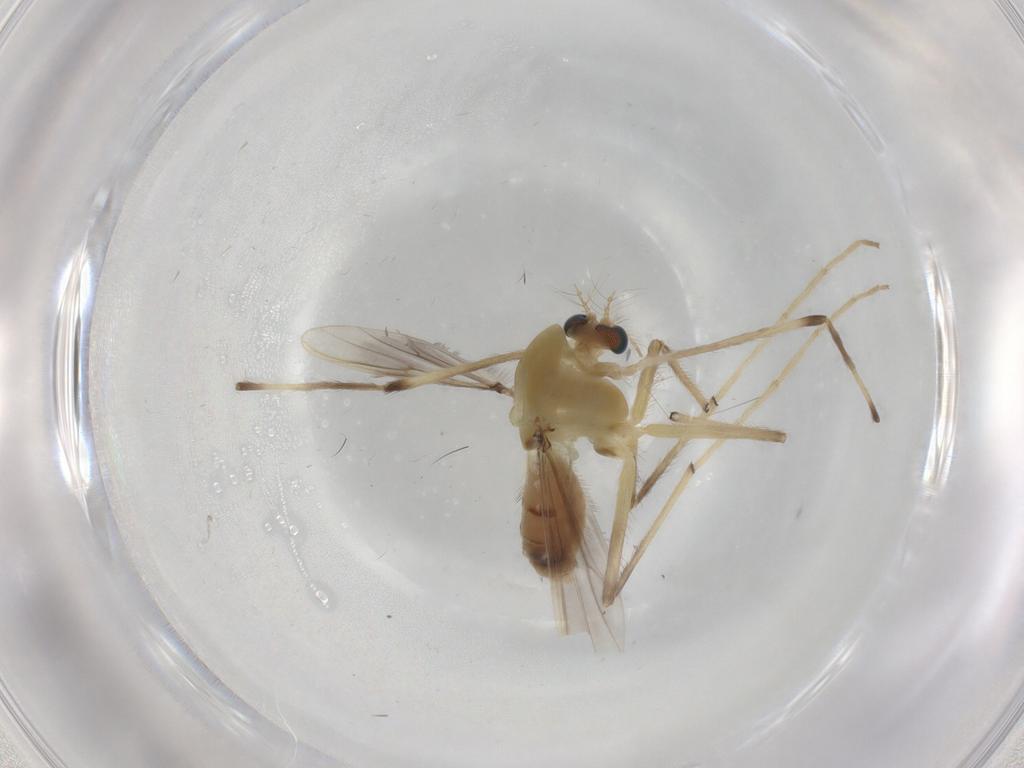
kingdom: Animalia
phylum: Arthropoda
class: Insecta
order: Diptera
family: Chironomidae
